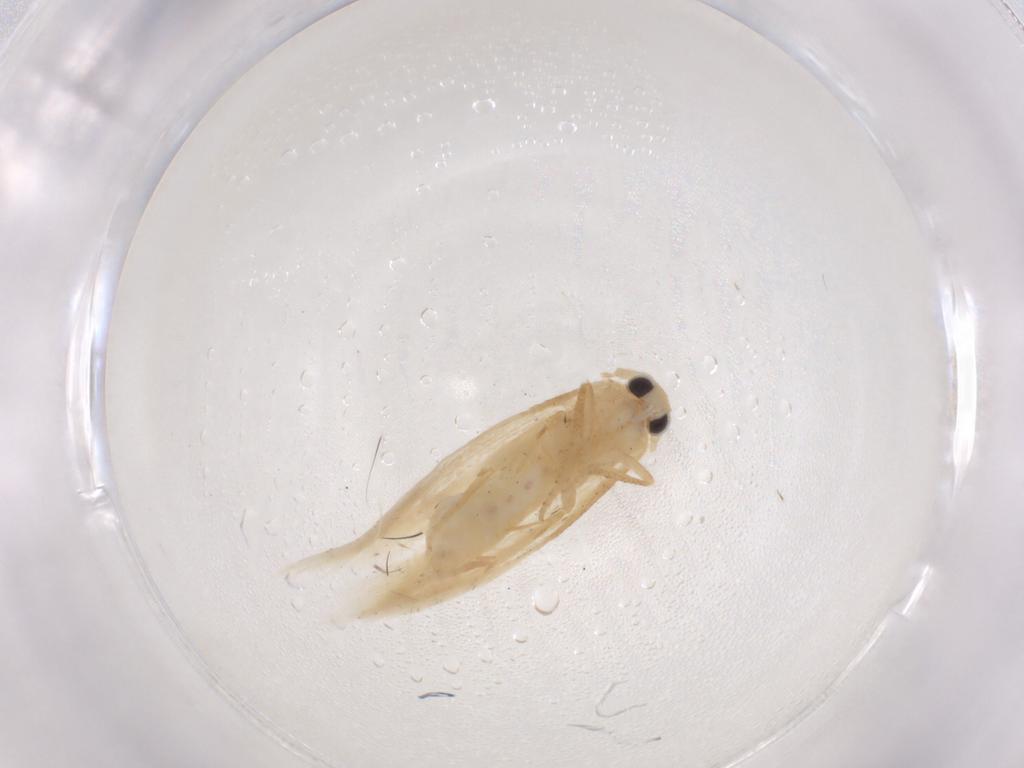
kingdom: Animalia
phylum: Arthropoda
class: Insecta
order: Lepidoptera
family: Bucculatricidae
